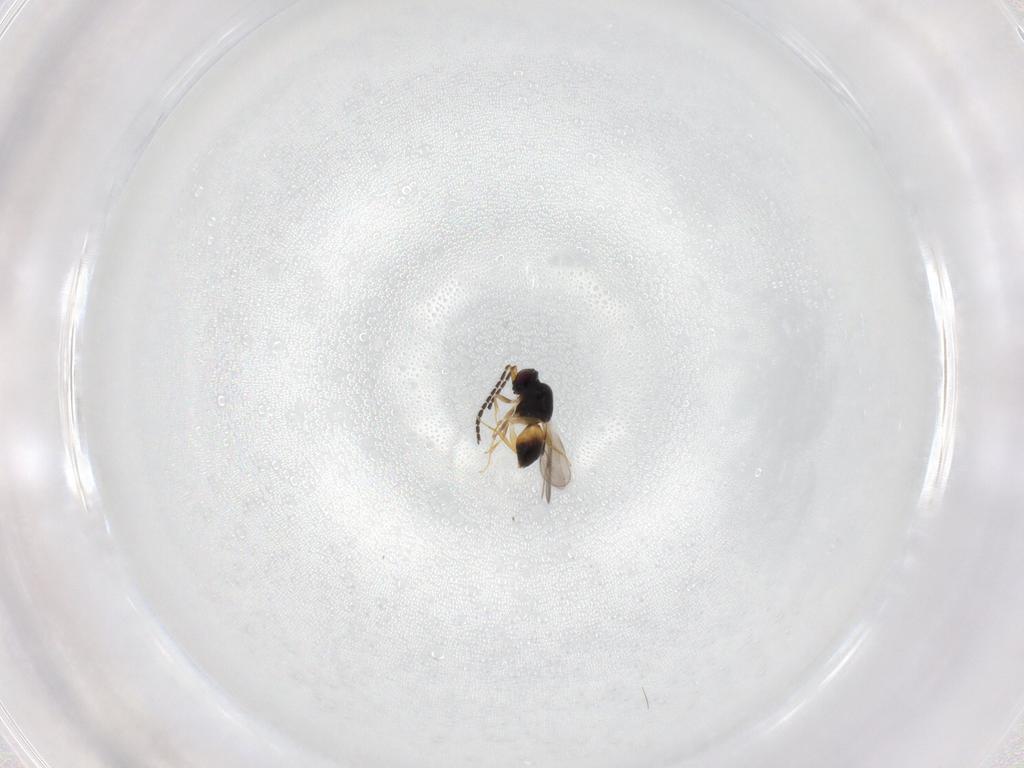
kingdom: Animalia
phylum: Arthropoda
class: Insecta
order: Hymenoptera
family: Ceraphronidae
